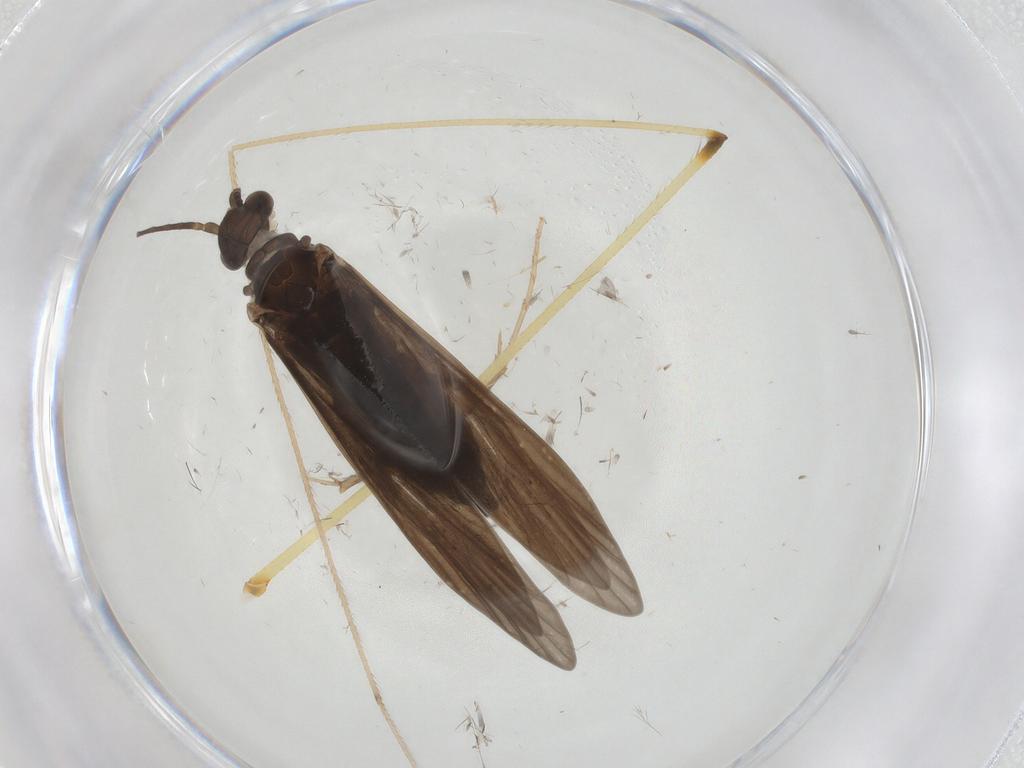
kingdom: Animalia
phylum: Arthropoda
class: Insecta
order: Trichoptera
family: Xiphocentronidae
